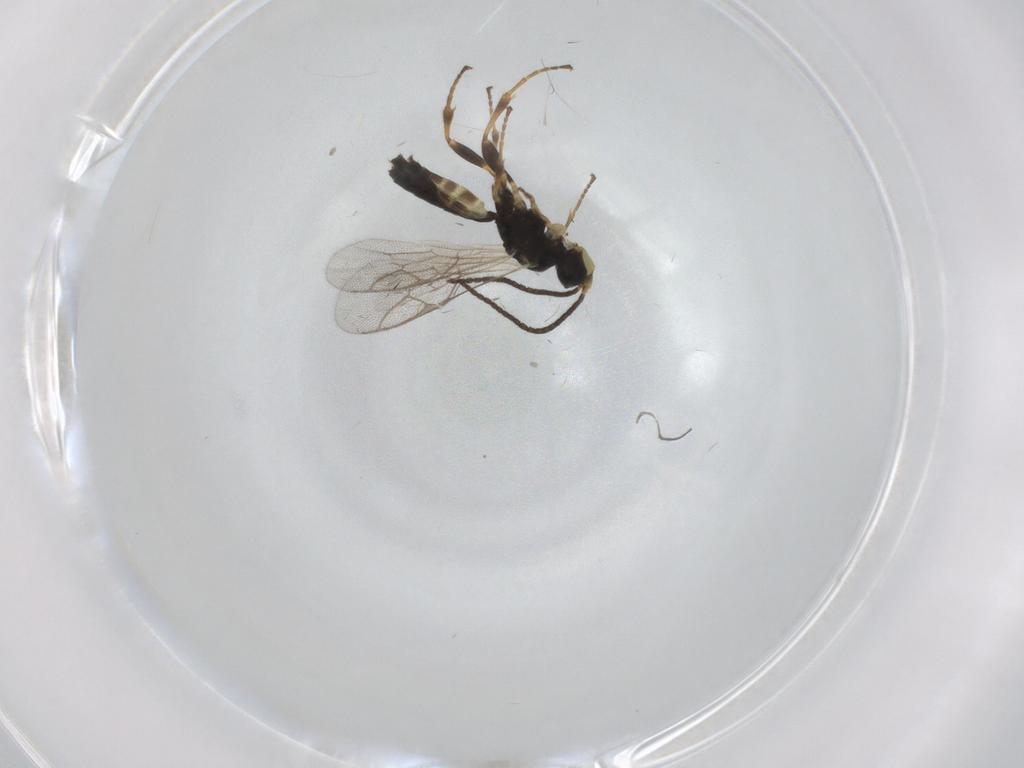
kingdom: Animalia
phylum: Arthropoda
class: Insecta
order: Hymenoptera
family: Ichneumonidae
